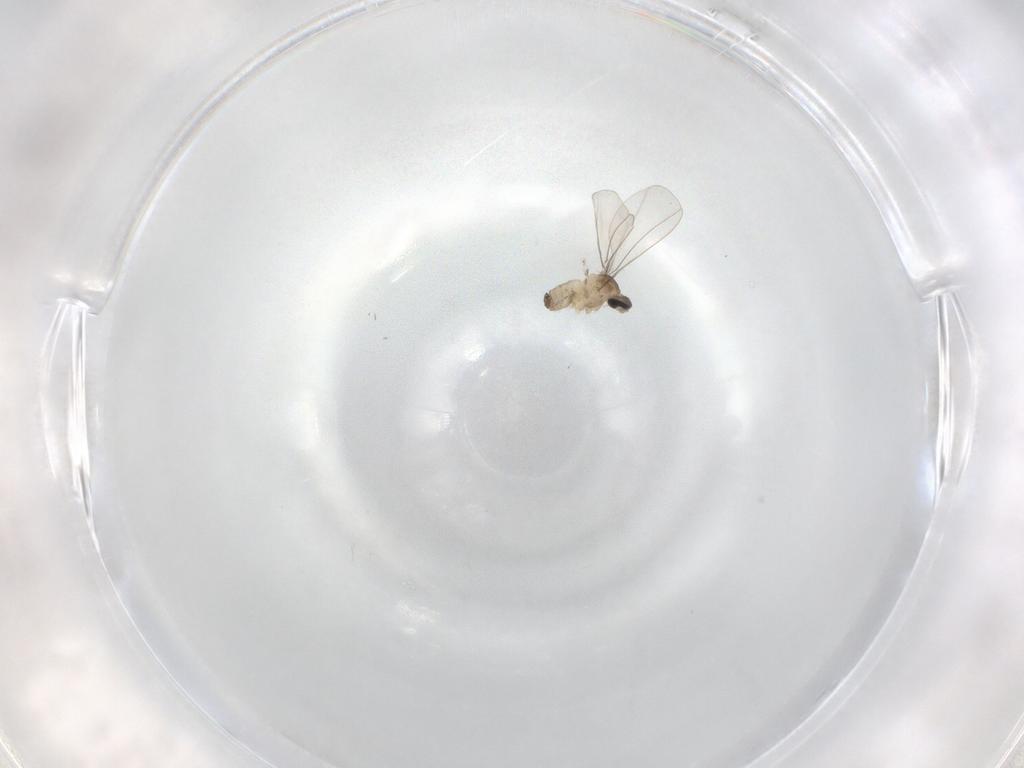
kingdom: Animalia
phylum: Arthropoda
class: Insecta
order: Diptera
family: Cecidomyiidae
